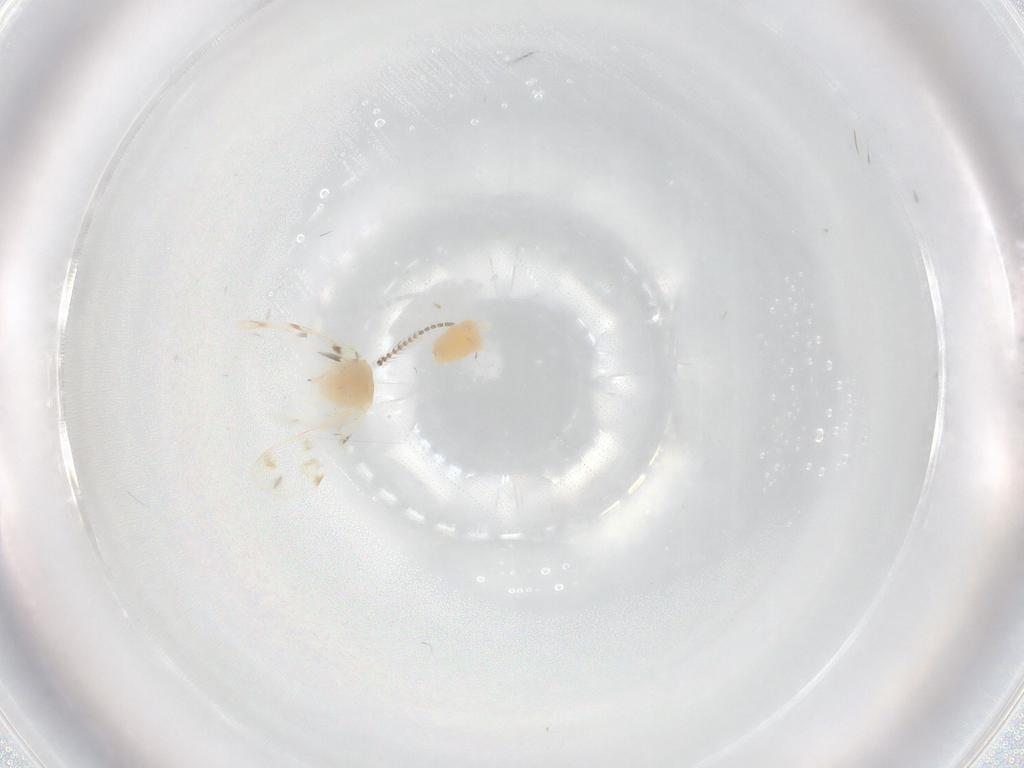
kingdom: Animalia
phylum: Arthropoda
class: Insecta
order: Hemiptera
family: Aleyrodidae
